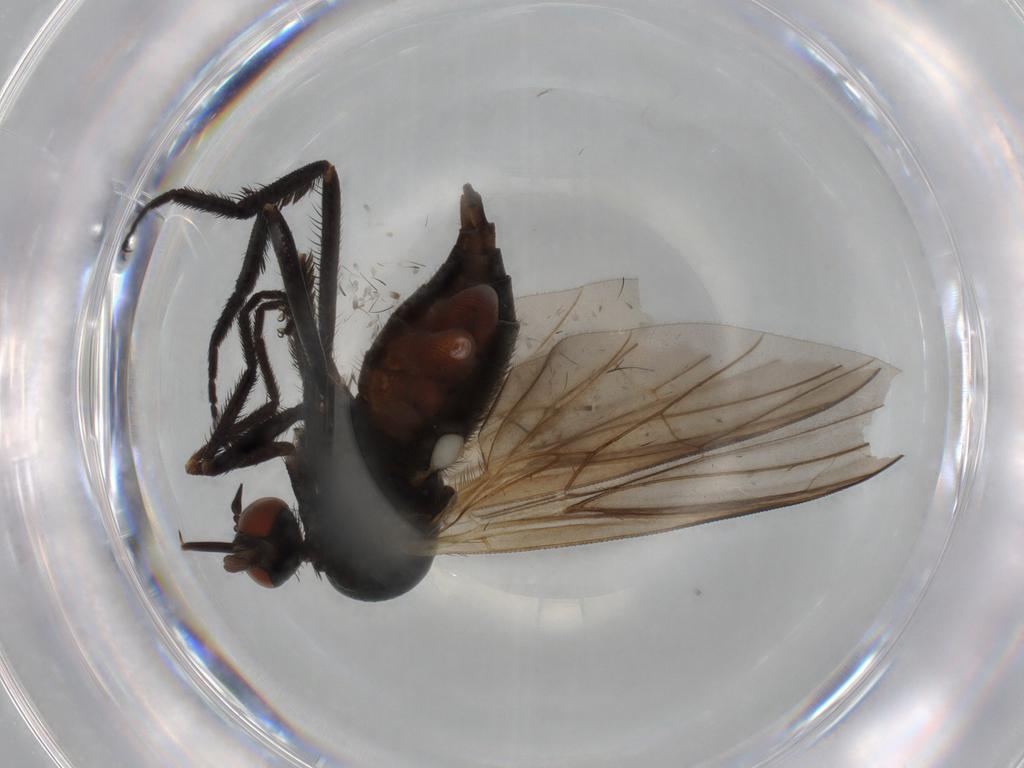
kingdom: Animalia
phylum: Arthropoda
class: Insecta
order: Diptera
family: Empididae
